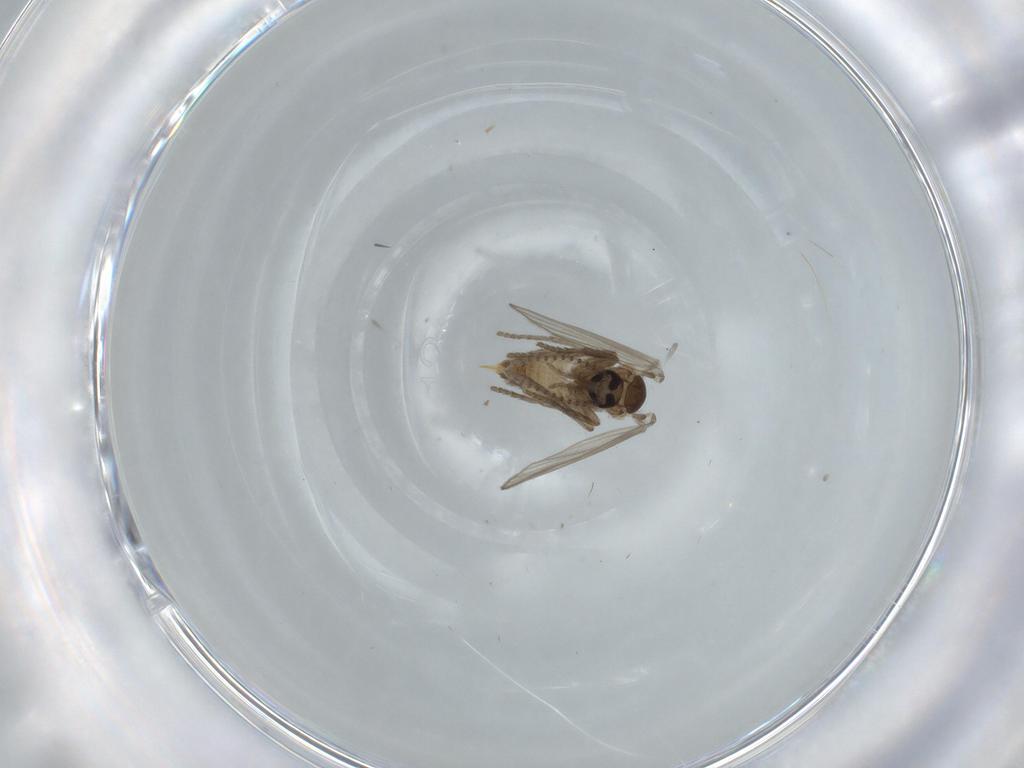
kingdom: Animalia
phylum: Arthropoda
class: Insecta
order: Diptera
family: Psychodidae
